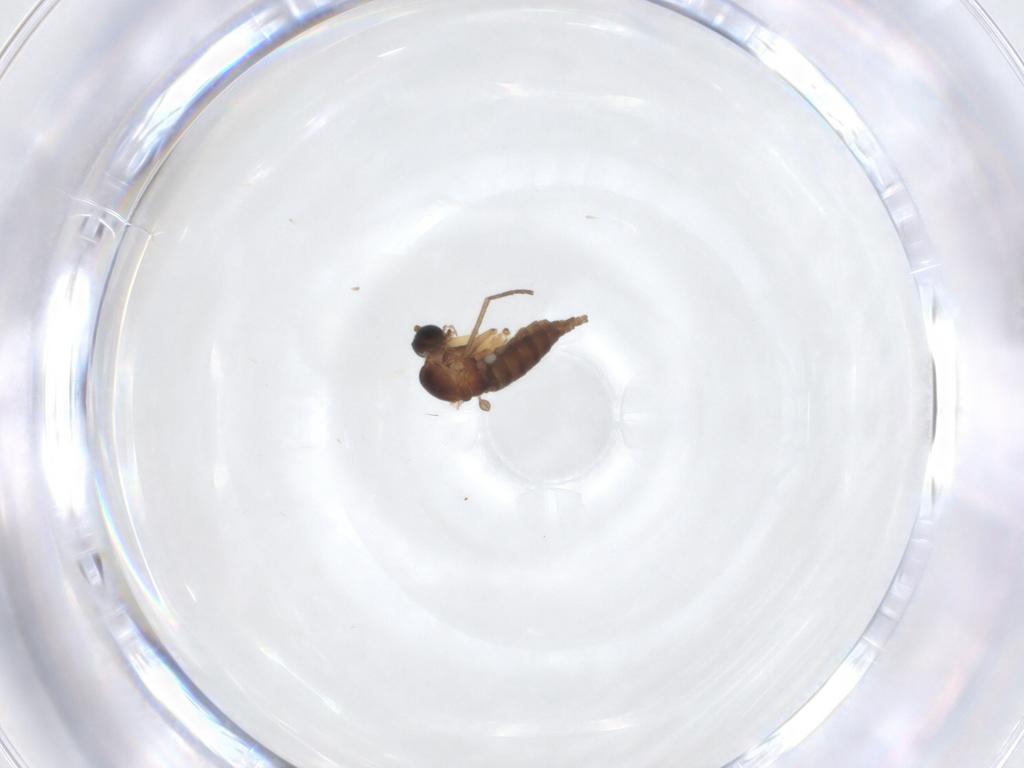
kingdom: Animalia
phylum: Arthropoda
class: Insecta
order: Diptera
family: Sciaridae
